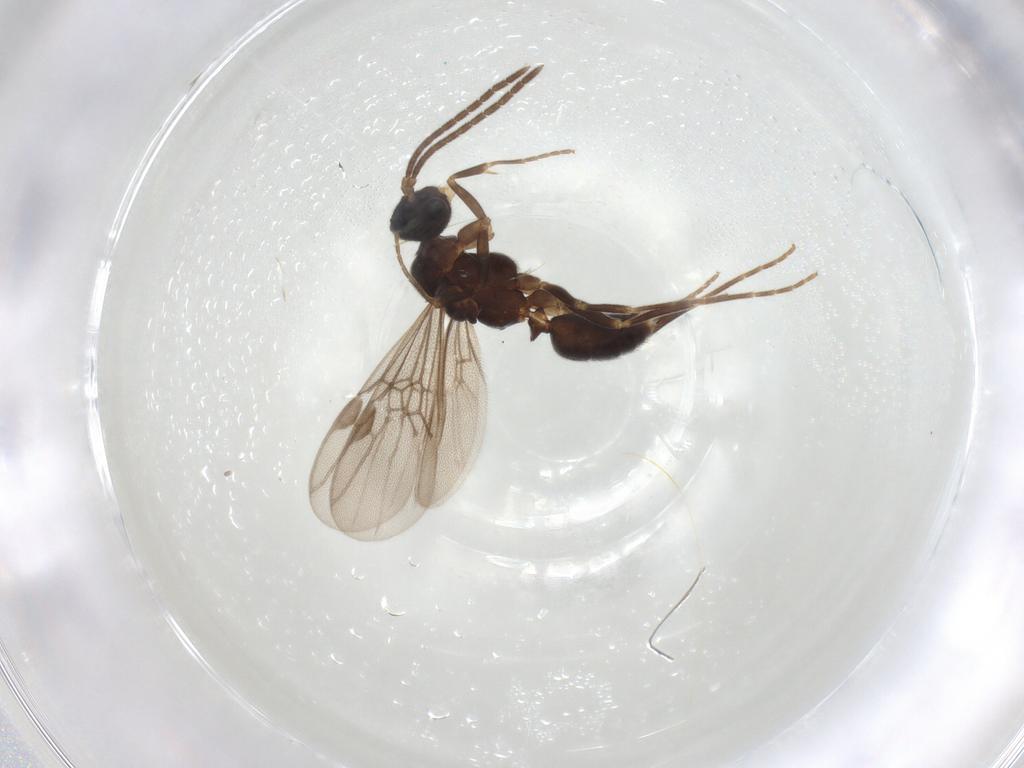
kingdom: Animalia
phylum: Arthropoda
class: Insecta
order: Hymenoptera
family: Formicidae
